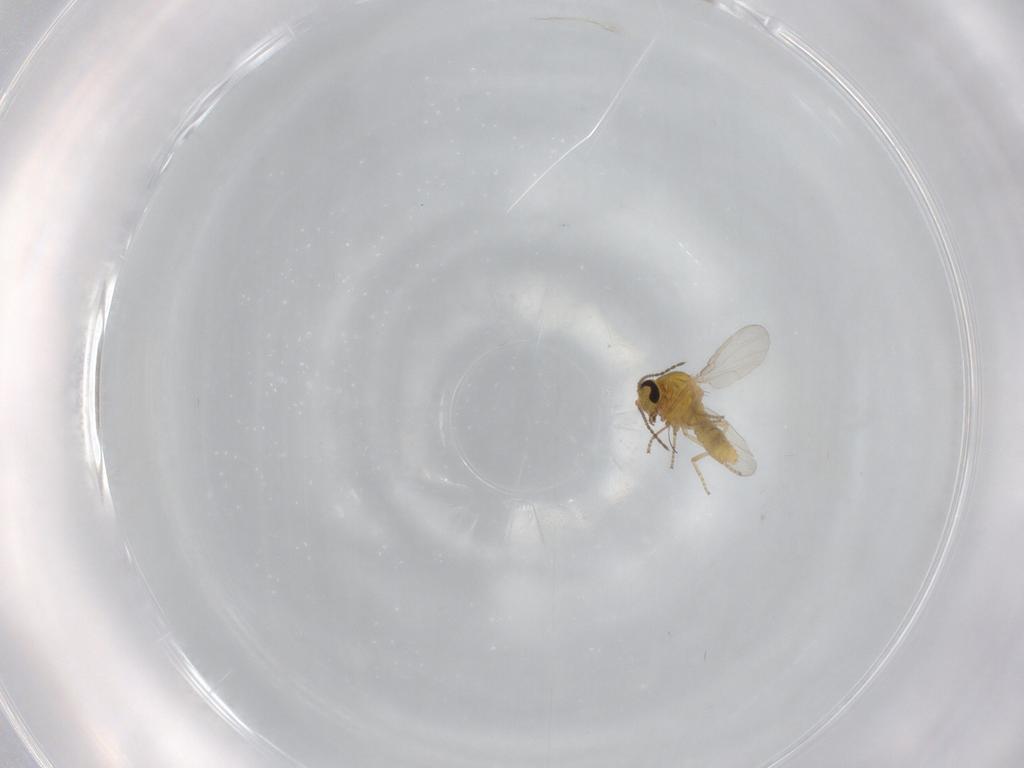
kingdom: Animalia
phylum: Arthropoda
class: Insecta
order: Diptera
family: Ceratopogonidae
